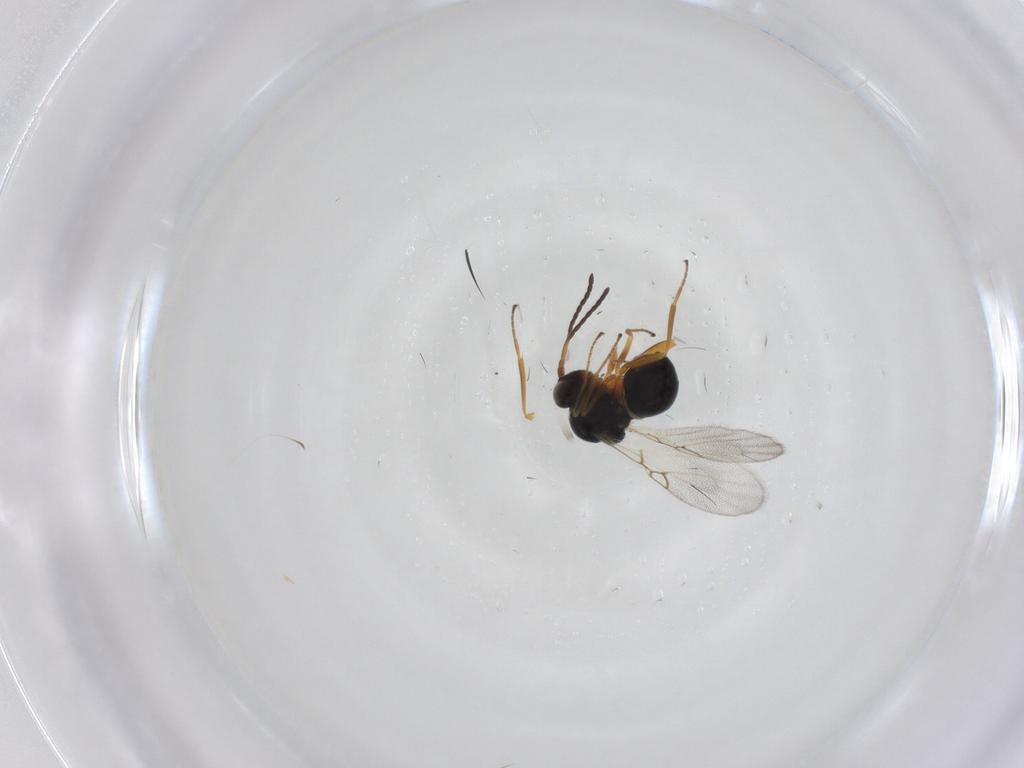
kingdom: Animalia
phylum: Arthropoda
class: Insecta
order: Hymenoptera
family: Figitidae
